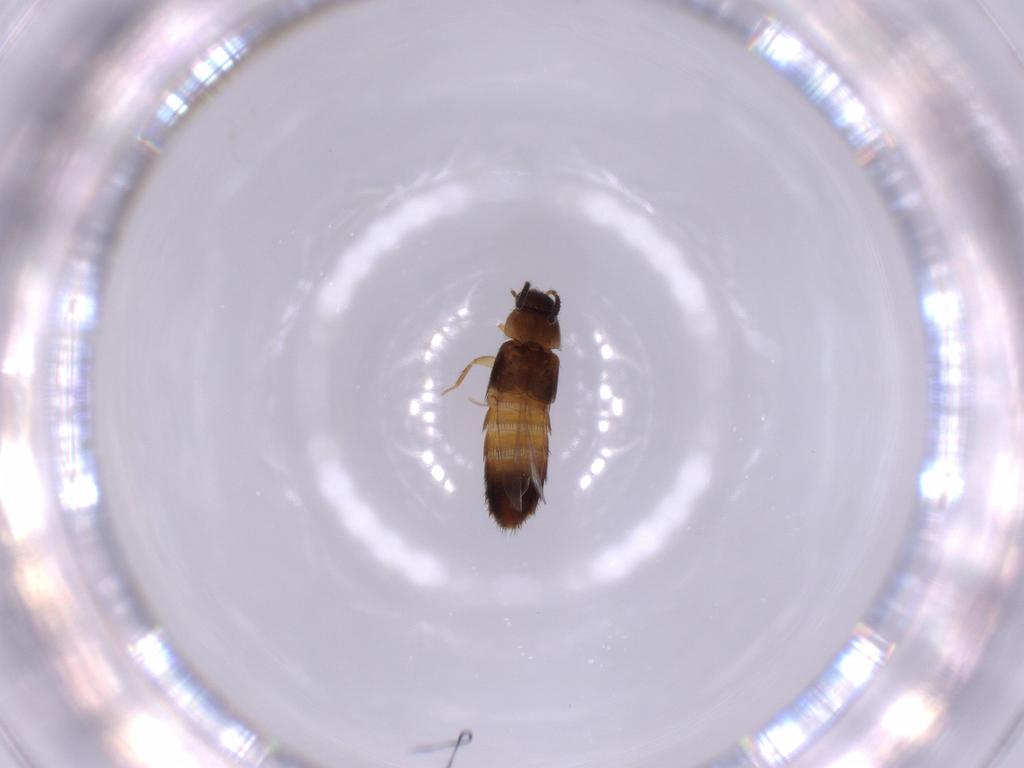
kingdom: Animalia
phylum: Arthropoda
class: Insecta
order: Coleoptera
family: Staphylinidae
